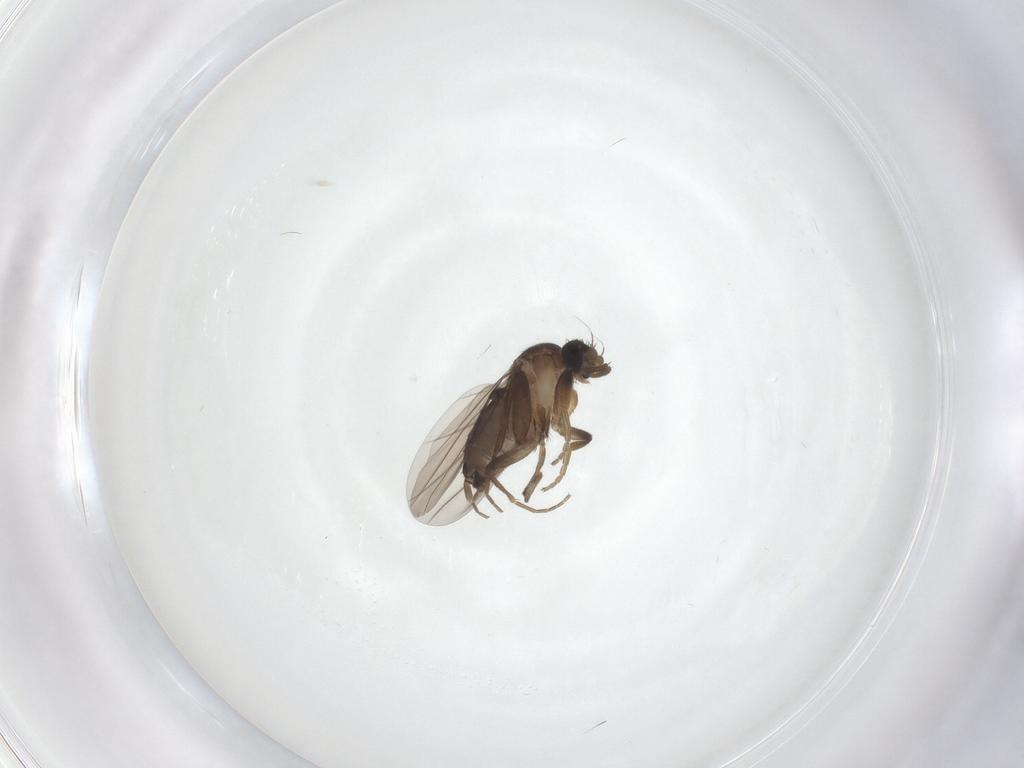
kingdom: Animalia
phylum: Arthropoda
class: Insecta
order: Diptera
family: Phoridae
